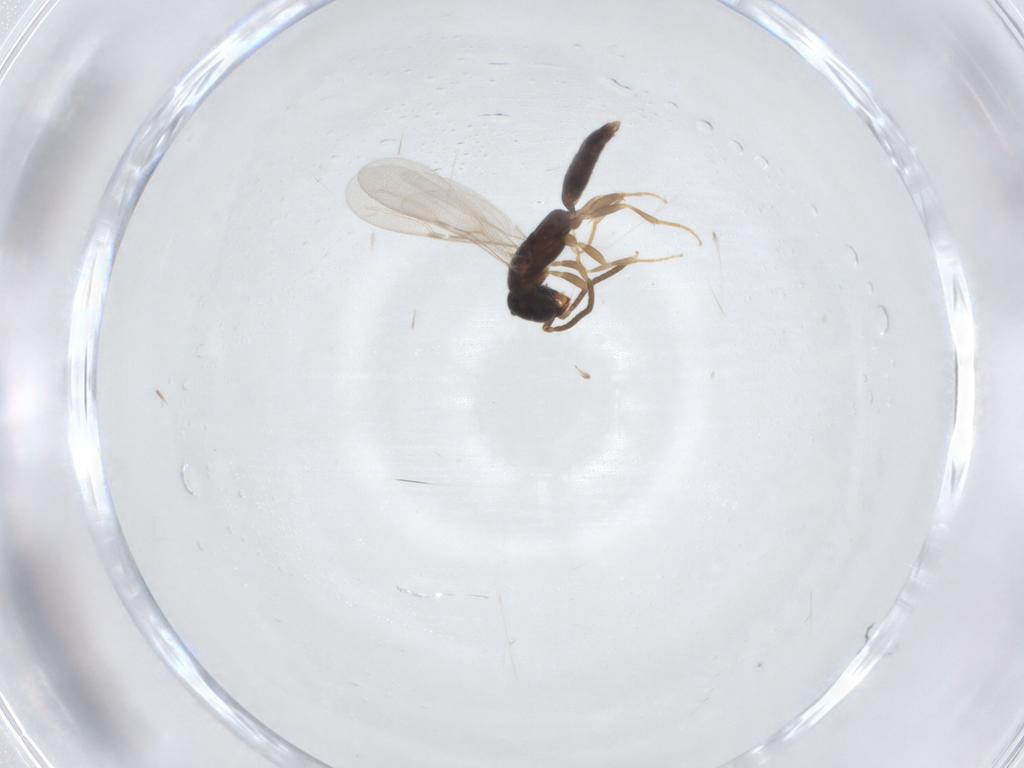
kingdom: Animalia
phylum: Arthropoda
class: Insecta
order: Hymenoptera
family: Bethylidae
